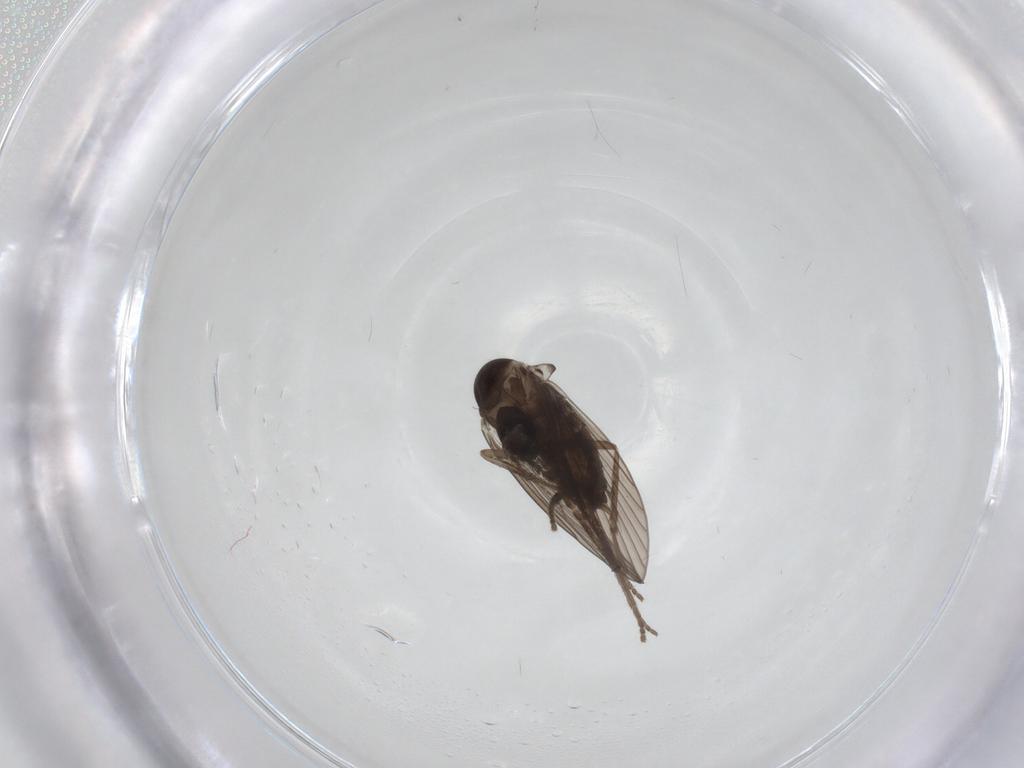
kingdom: Animalia
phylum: Arthropoda
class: Insecta
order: Diptera
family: Psychodidae
